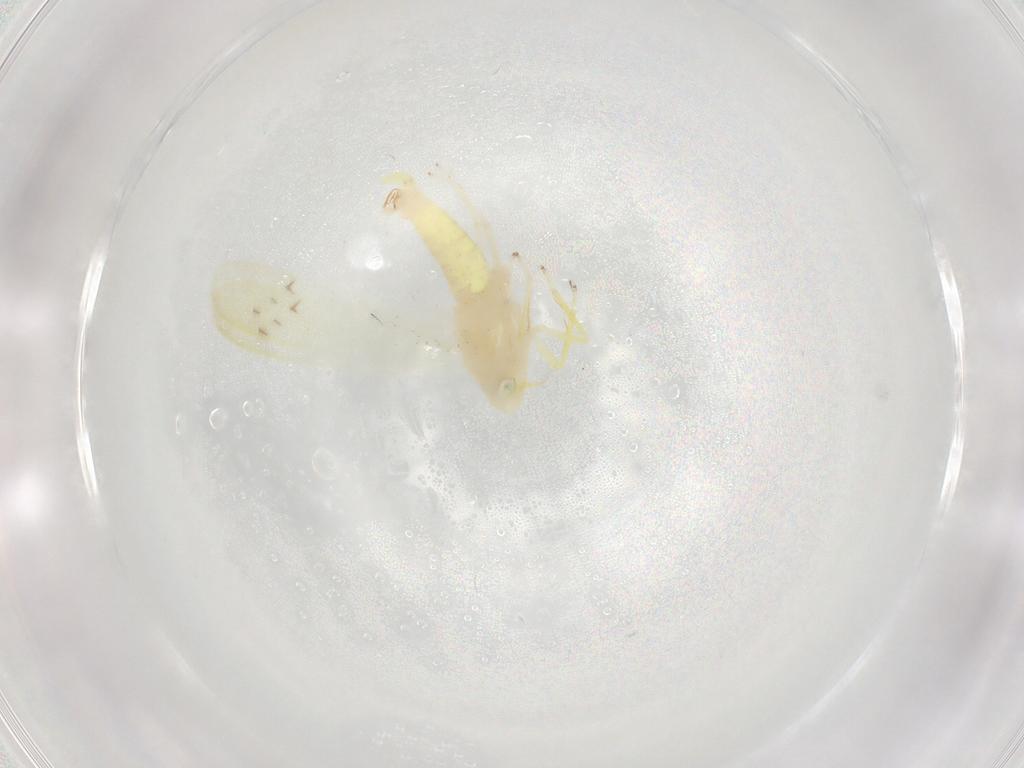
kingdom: Animalia
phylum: Arthropoda
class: Insecta
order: Hemiptera
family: Cicadellidae
